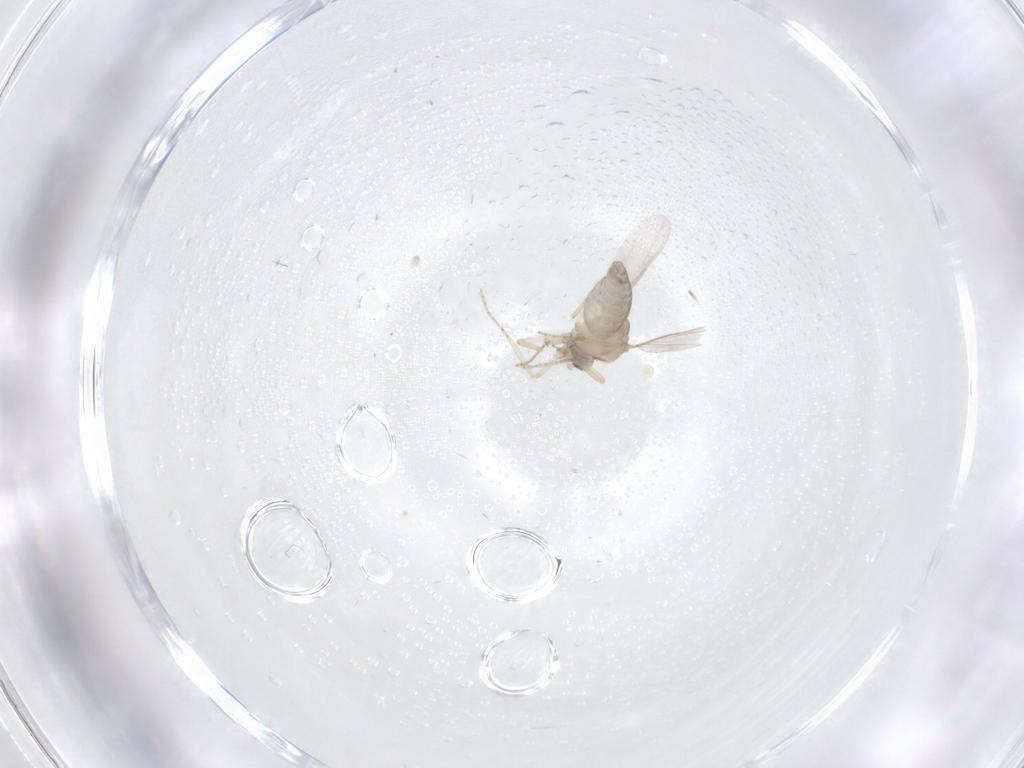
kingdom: Animalia
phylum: Arthropoda
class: Insecta
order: Diptera
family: Ceratopogonidae
